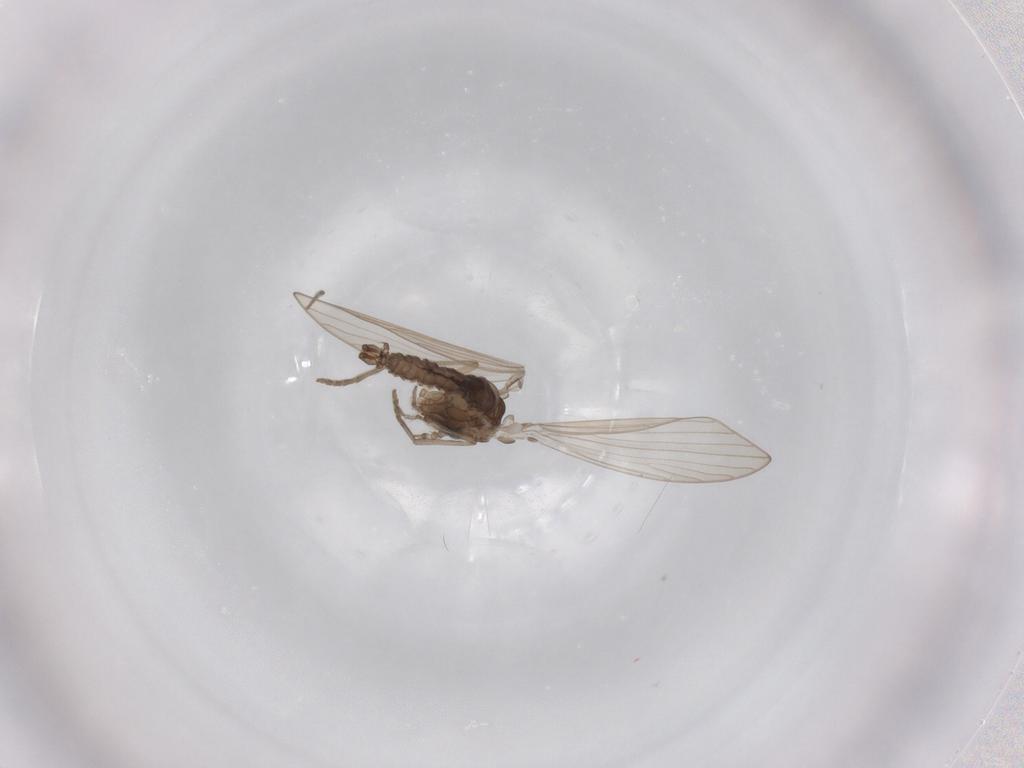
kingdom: Animalia
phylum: Arthropoda
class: Insecta
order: Diptera
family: Psychodidae
